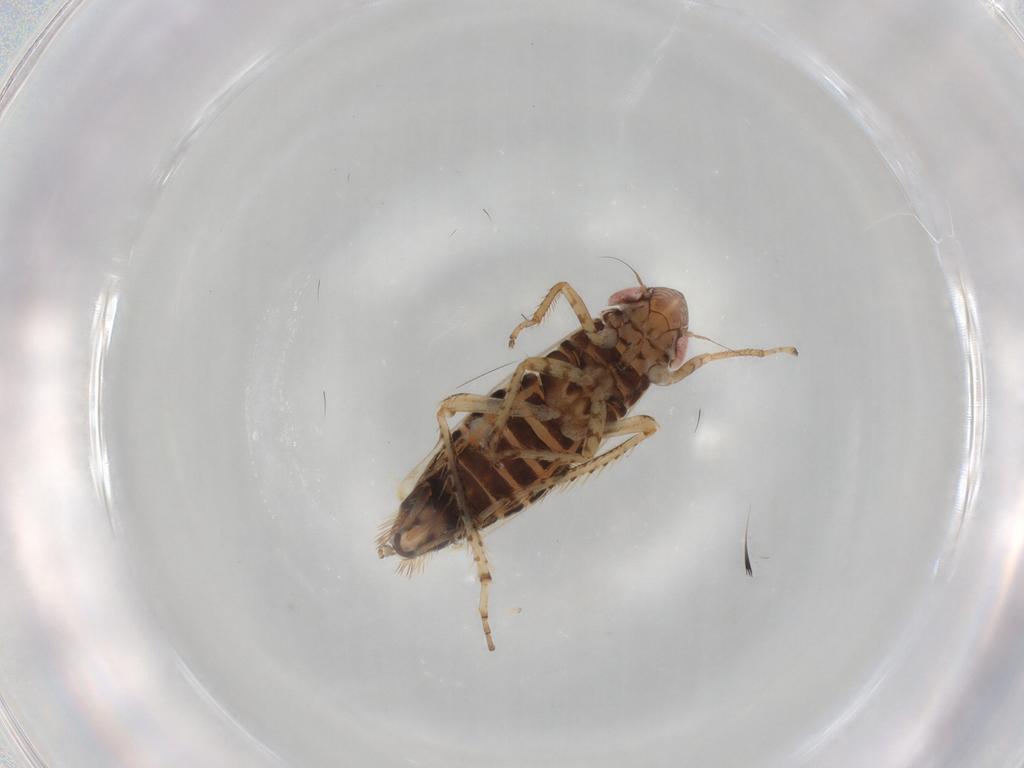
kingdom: Animalia
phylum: Arthropoda
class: Insecta
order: Hemiptera
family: Cicadellidae
